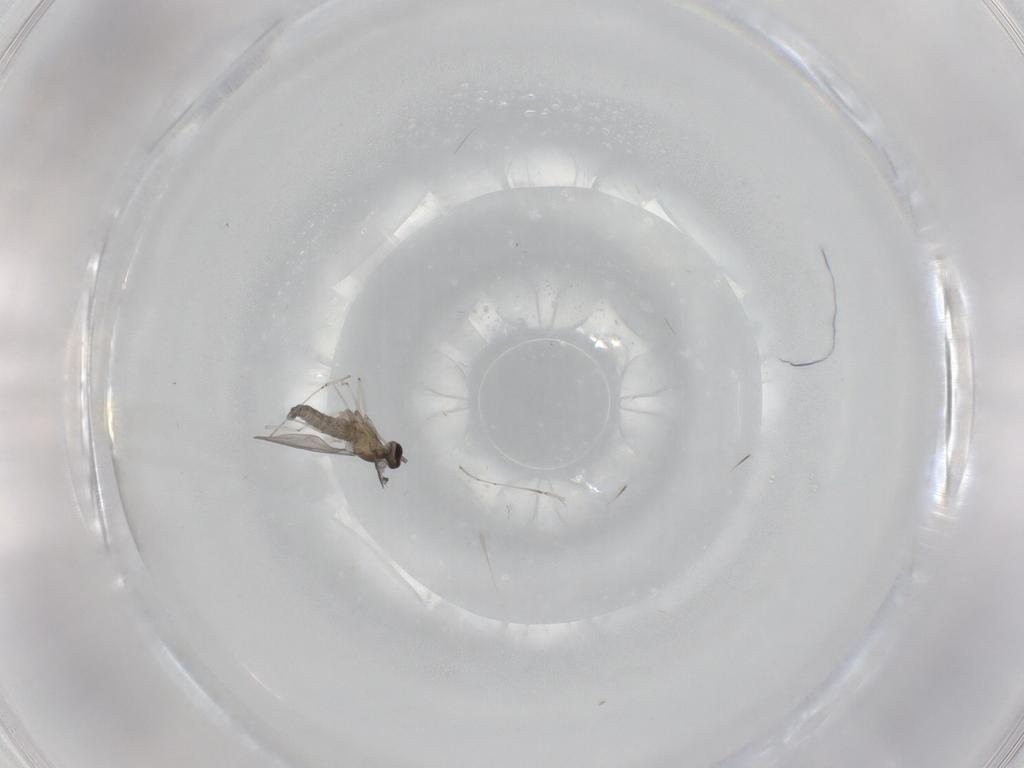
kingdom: Animalia
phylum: Arthropoda
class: Insecta
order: Diptera
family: Cecidomyiidae
